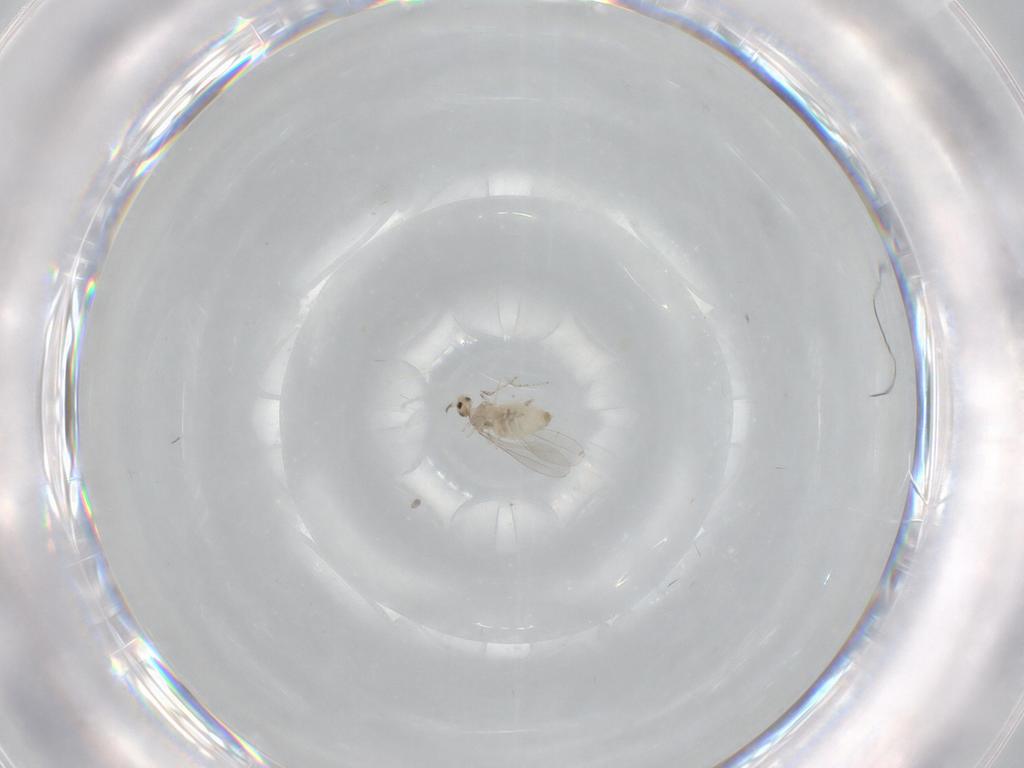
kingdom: Animalia
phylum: Arthropoda
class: Insecta
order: Diptera
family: Cecidomyiidae
